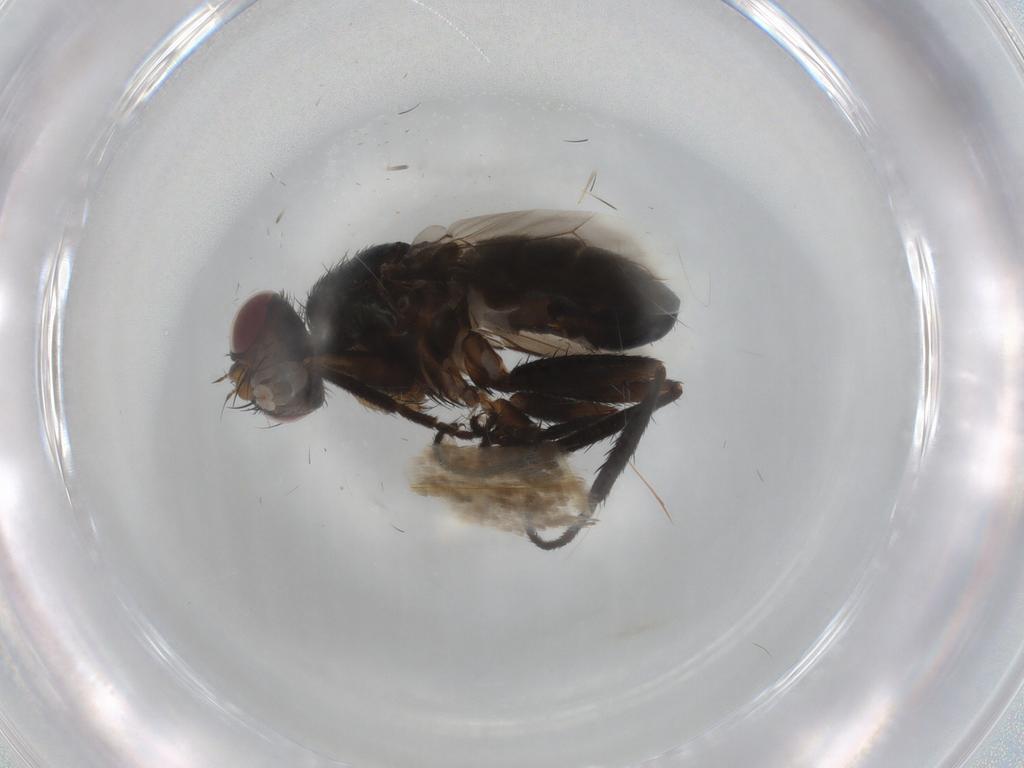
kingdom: Animalia
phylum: Arthropoda
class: Insecta
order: Diptera
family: Tachinidae
